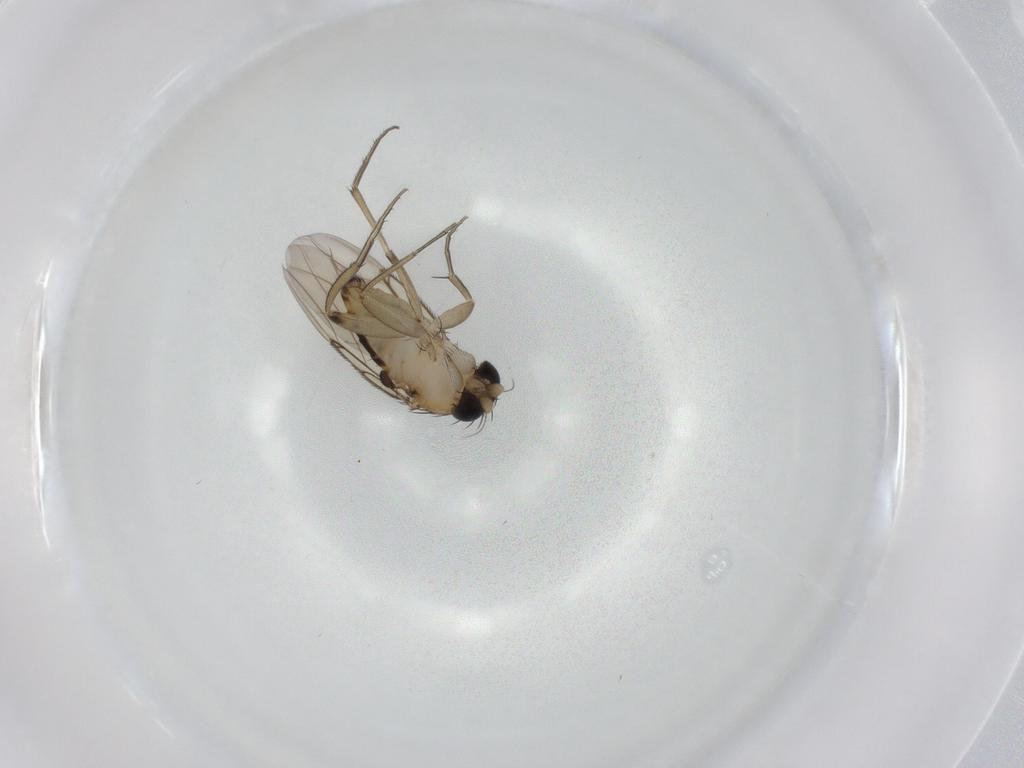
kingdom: Animalia
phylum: Arthropoda
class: Insecta
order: Diptera
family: Phoridae
